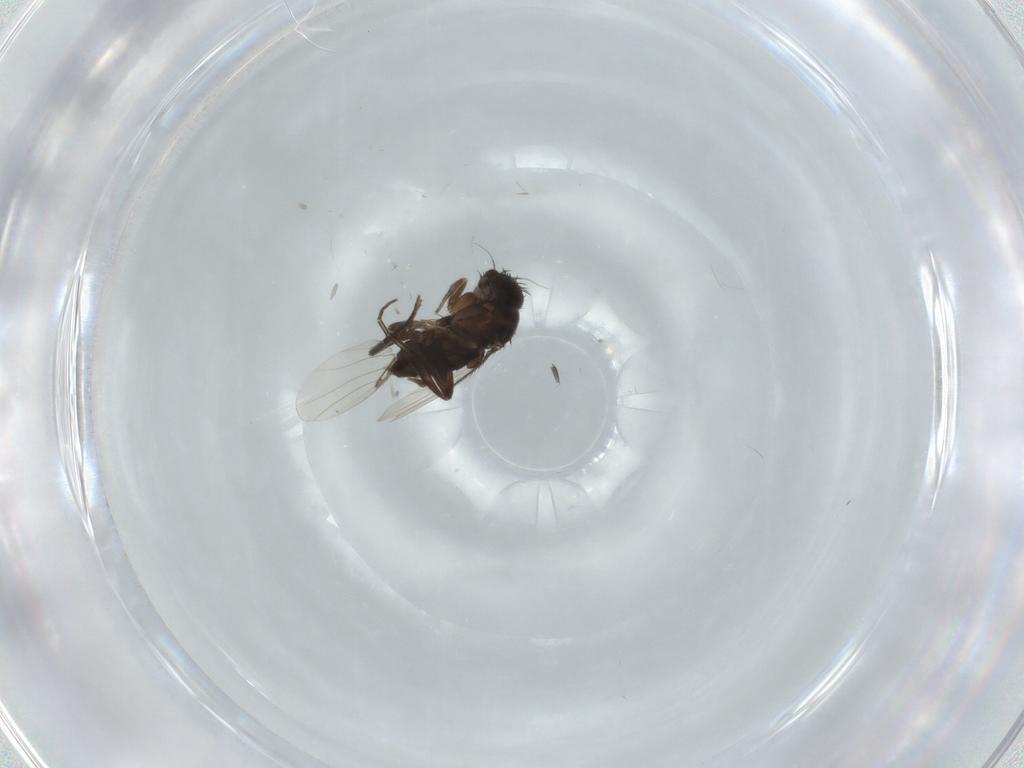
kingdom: Animalia
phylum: Arthropoda
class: Insecta
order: Diptera
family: Phoridae
